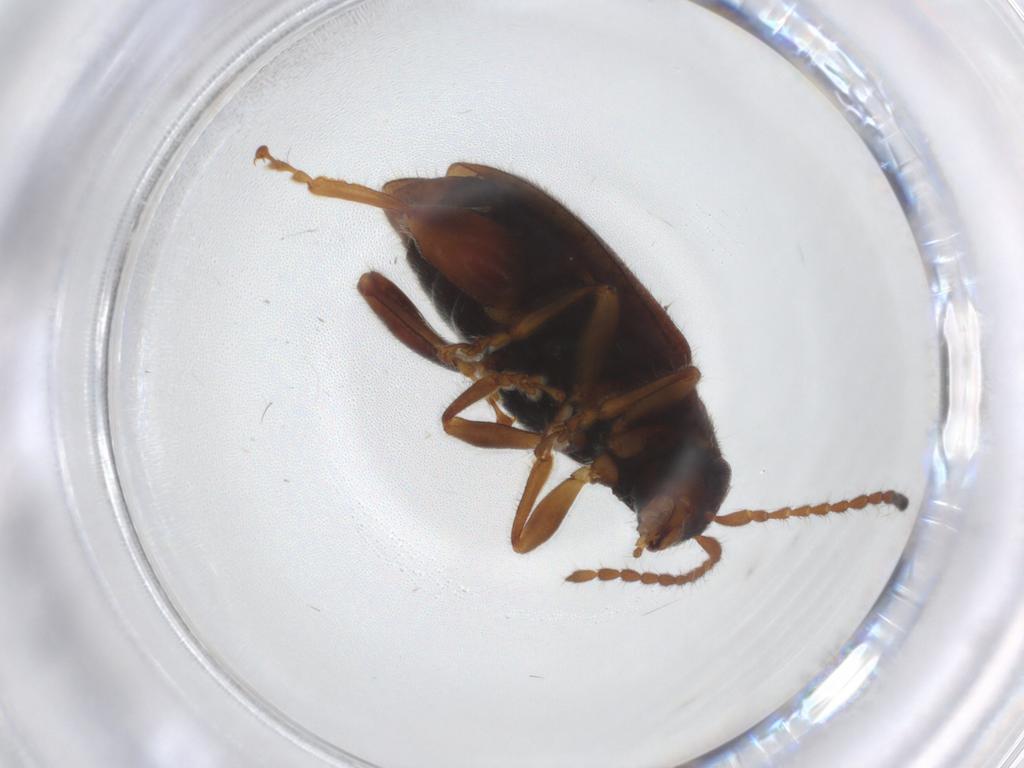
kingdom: Animalia
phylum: Arthropoda
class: Insecta
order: Coleoptera
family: Chrysomelidae
